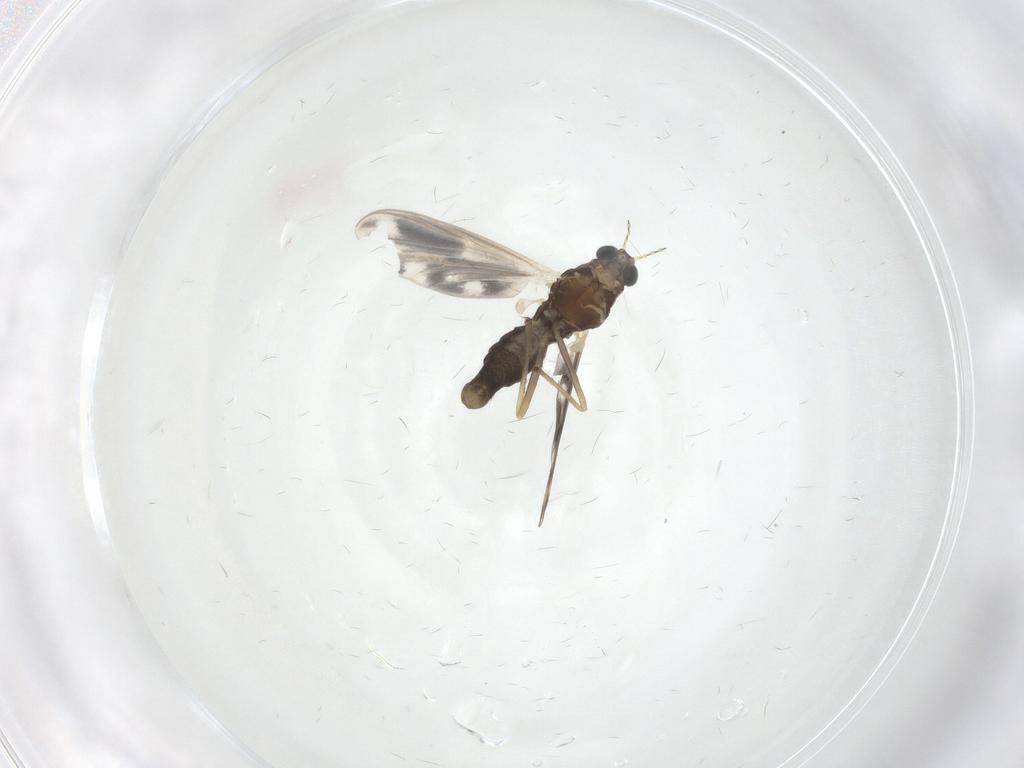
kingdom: Animalia
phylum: Arthropoda
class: Insecta
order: Diptera
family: Chironomidae
